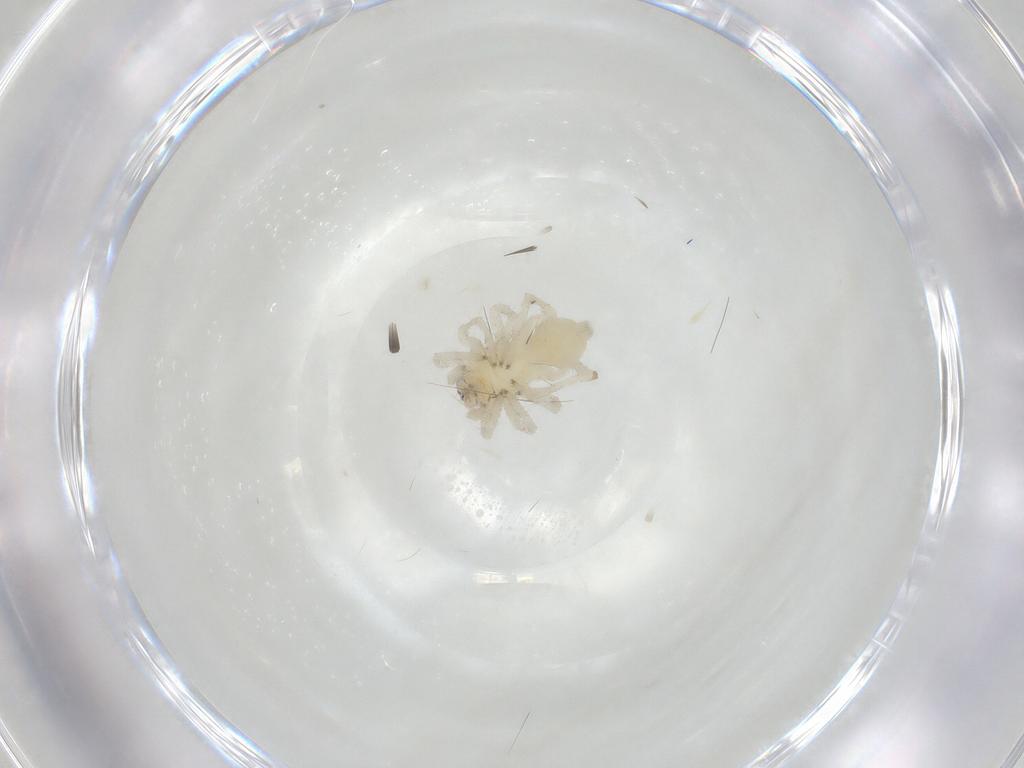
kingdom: Animalia
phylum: Arthropoda
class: Arachnida
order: Araneae
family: Clubionidae
